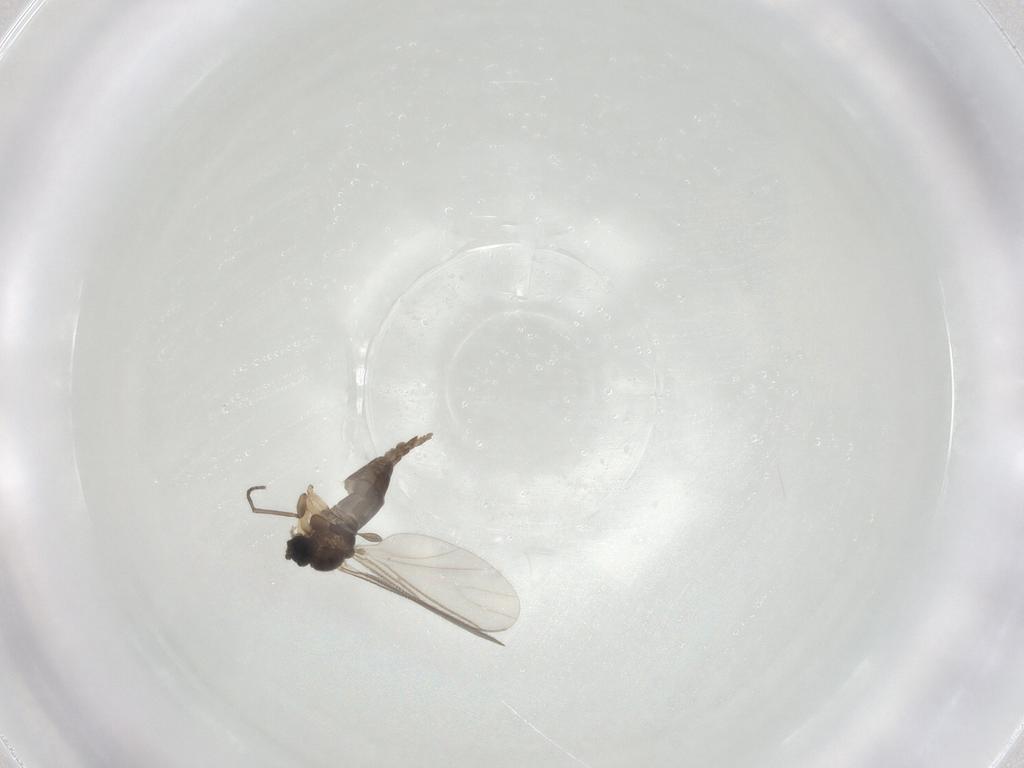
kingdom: Animalia
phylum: Arthropoda
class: Insecta
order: Diptera
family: Sciaridae
